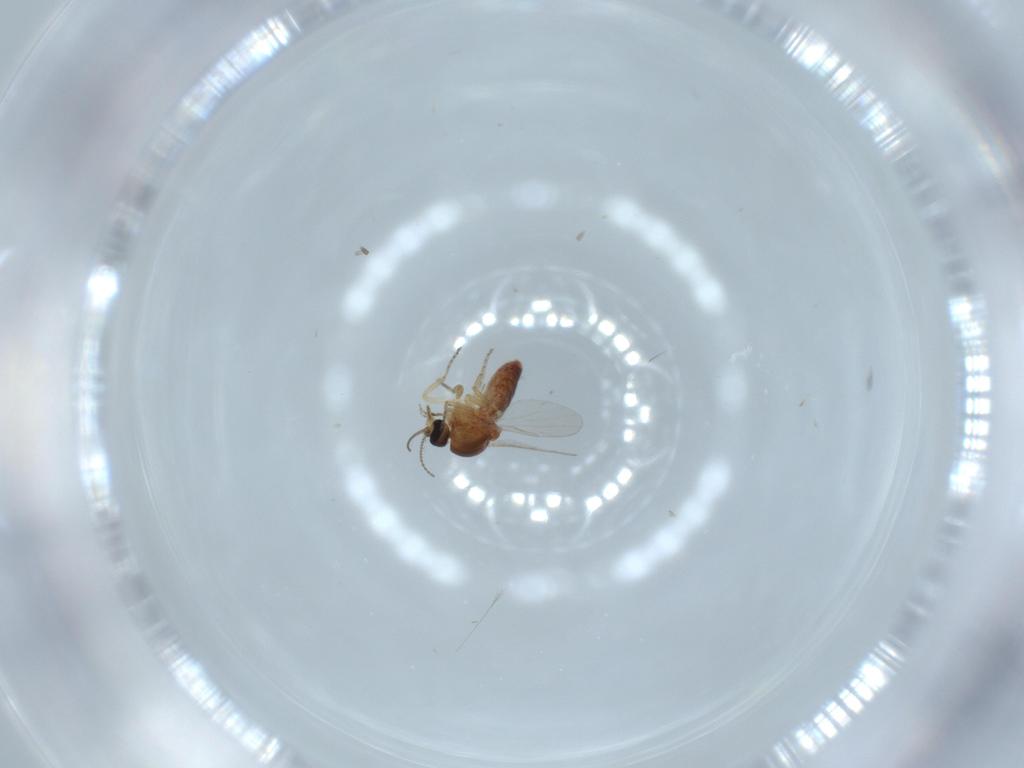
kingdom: Animalia
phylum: Arthropoda
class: Insecta
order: Diptera
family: Ceratopogonidae
